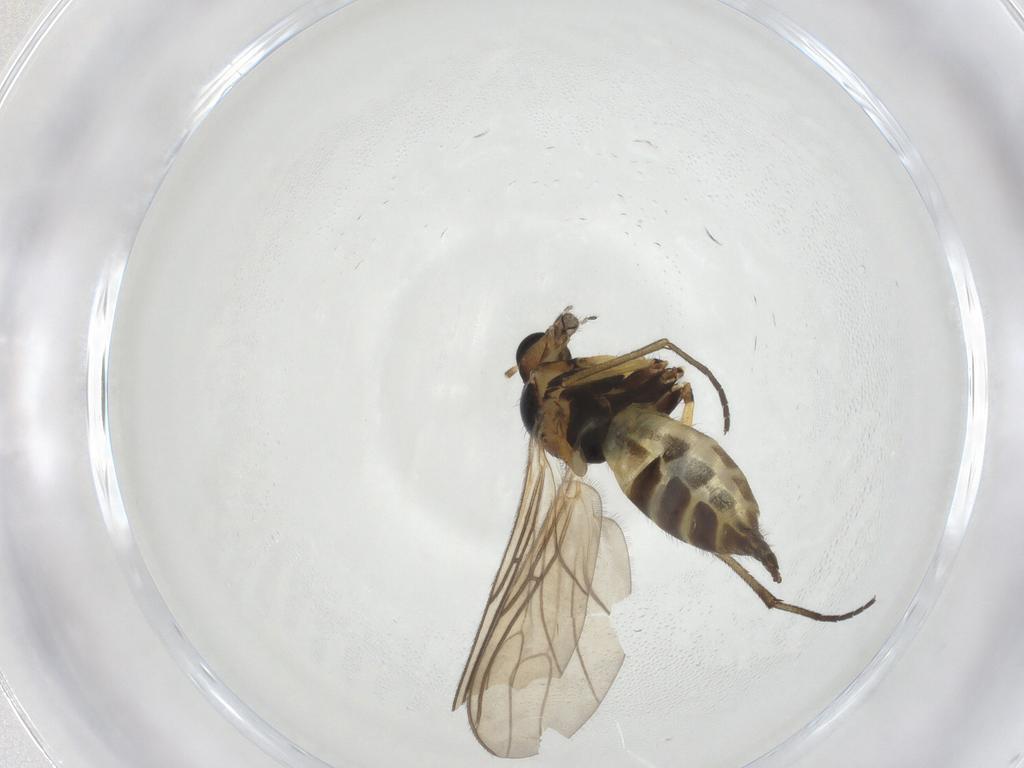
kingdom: Animalia
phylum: Arthropoda
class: Insecta
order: Diptera
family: Sciaridae
